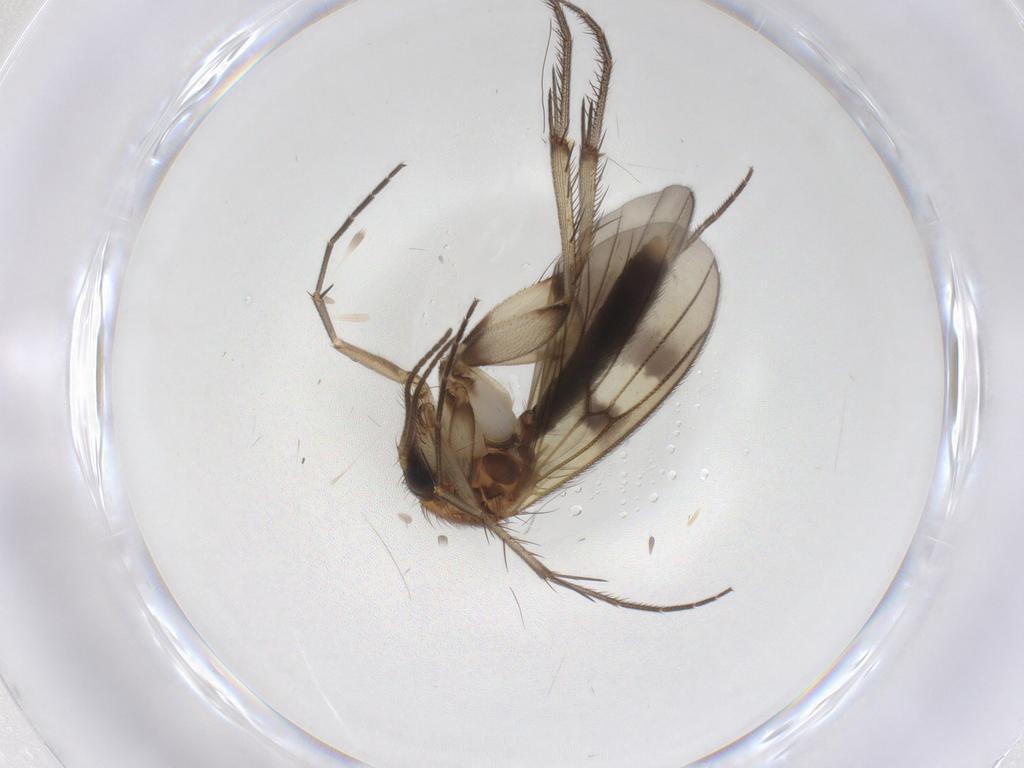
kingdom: Animalia
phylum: Arthropoda
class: Insecta
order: Diptera
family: Mycetophilidae
